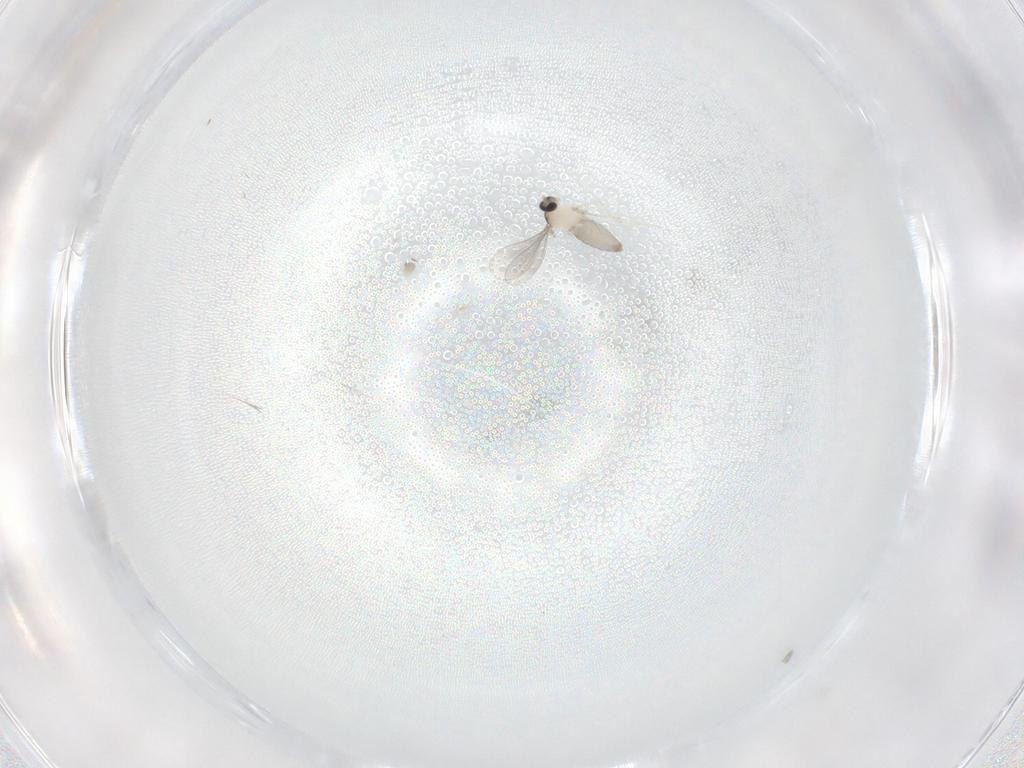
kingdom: Animalia
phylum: Arthropoda
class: Insecta
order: Diptera
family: Cecidomyiidae
